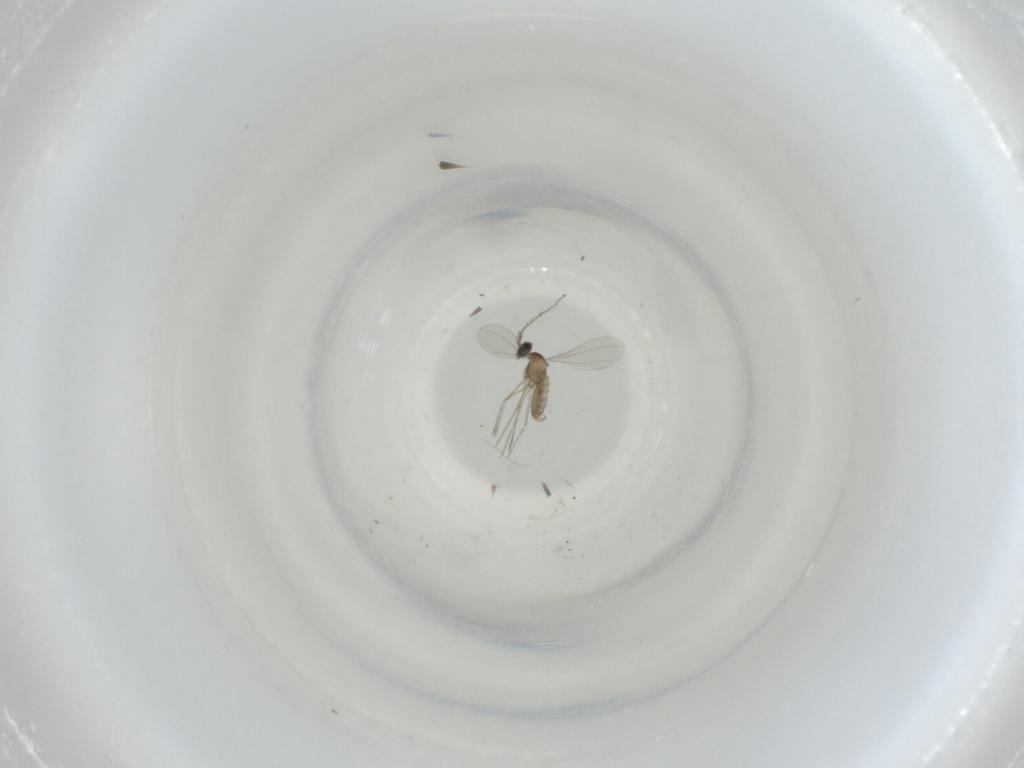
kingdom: Animalia
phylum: Arthropoda
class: Insecta
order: Diptera
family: Cecidomyiidae
